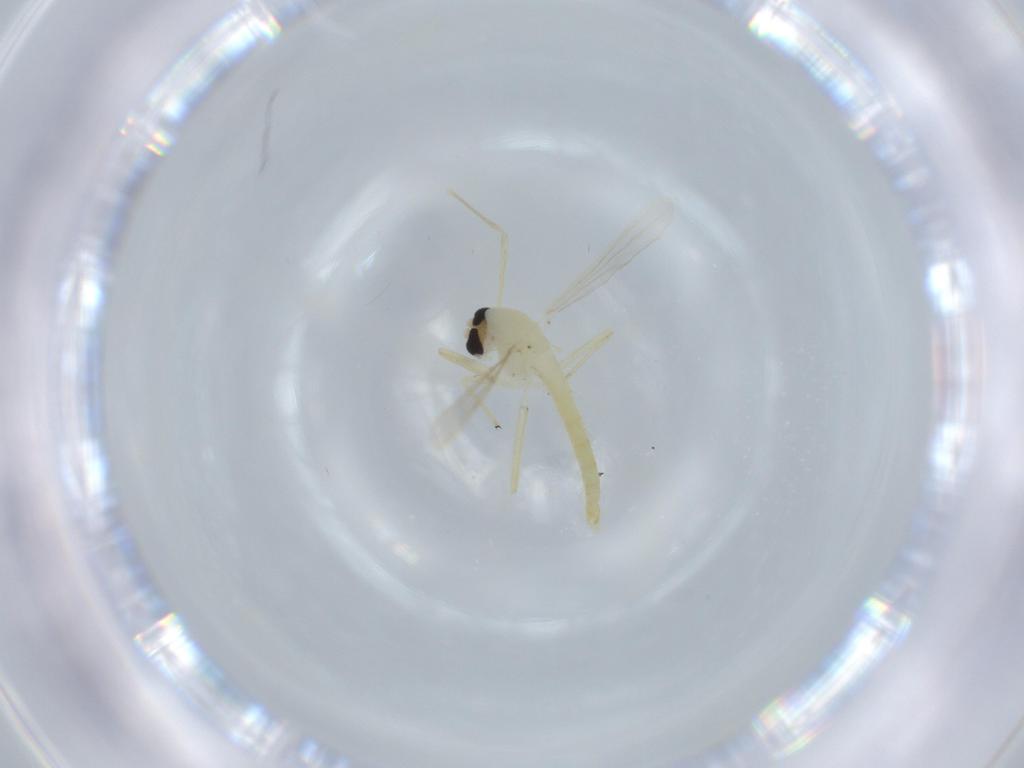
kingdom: Animalia
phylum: Arthropoda
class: Insecta
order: Diptera
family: Chironomidae
